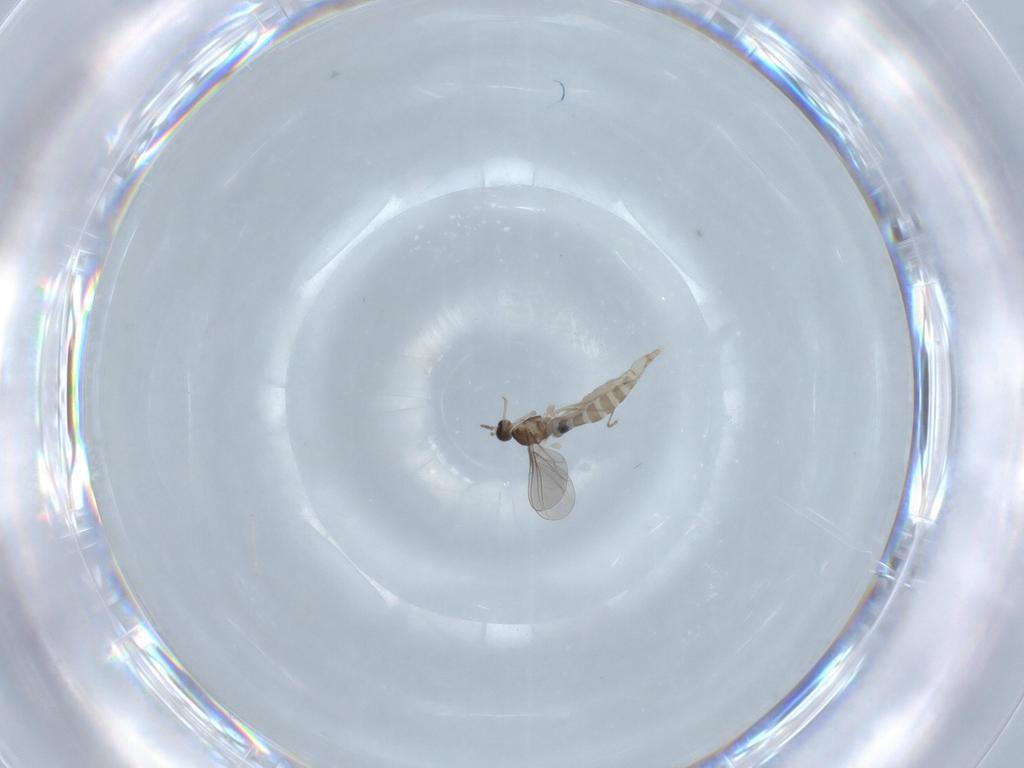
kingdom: Animalia
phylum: Arthropoda
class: Insecta
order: Diptera
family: Cecidomyiidae
